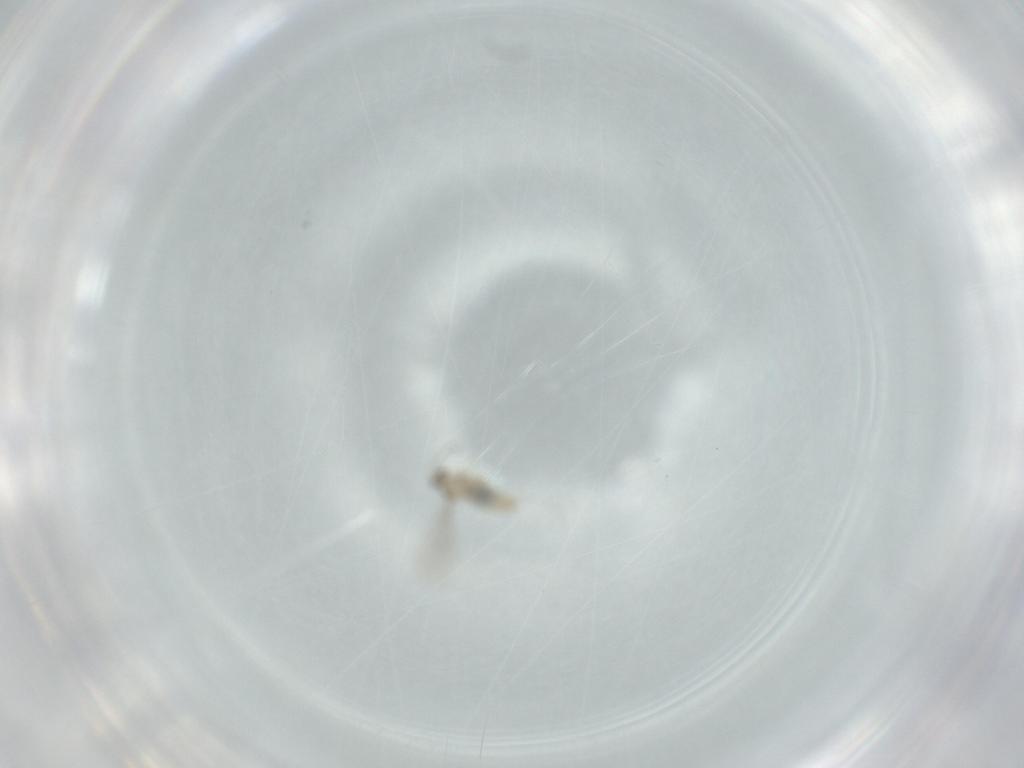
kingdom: Animalia
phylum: Arthropoda
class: Insecta
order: Diptera
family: Cecidomyiidae
